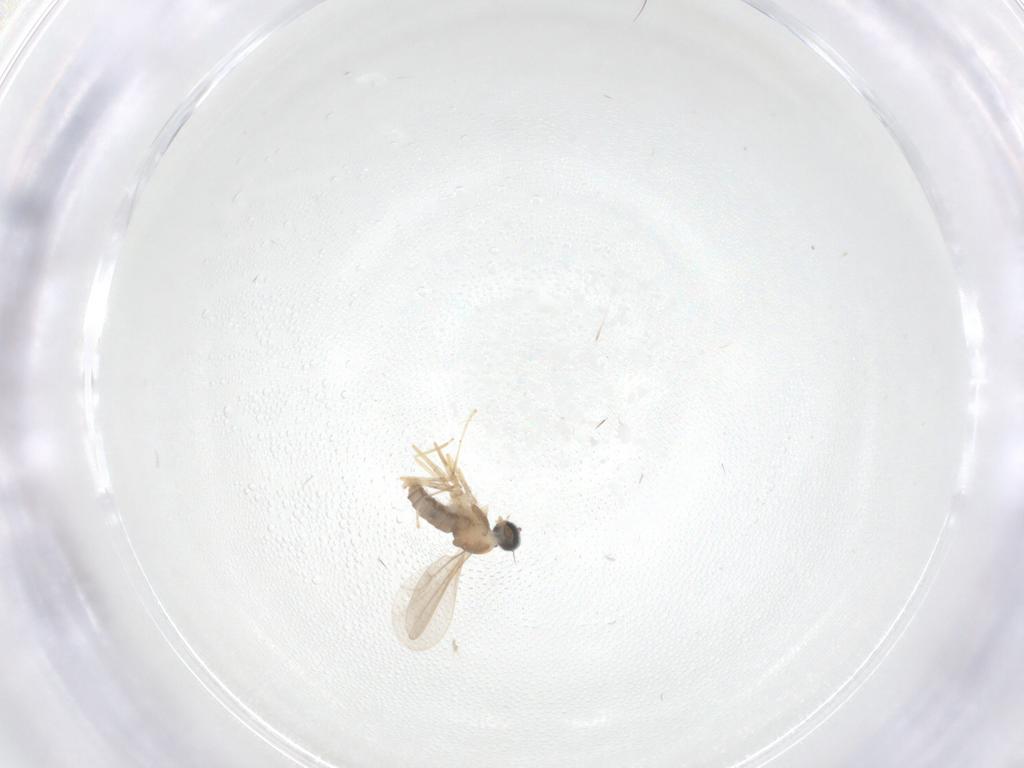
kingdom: Animalia
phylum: Arthropoda
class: Insecta
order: Diptera
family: Cecidomyiidae
